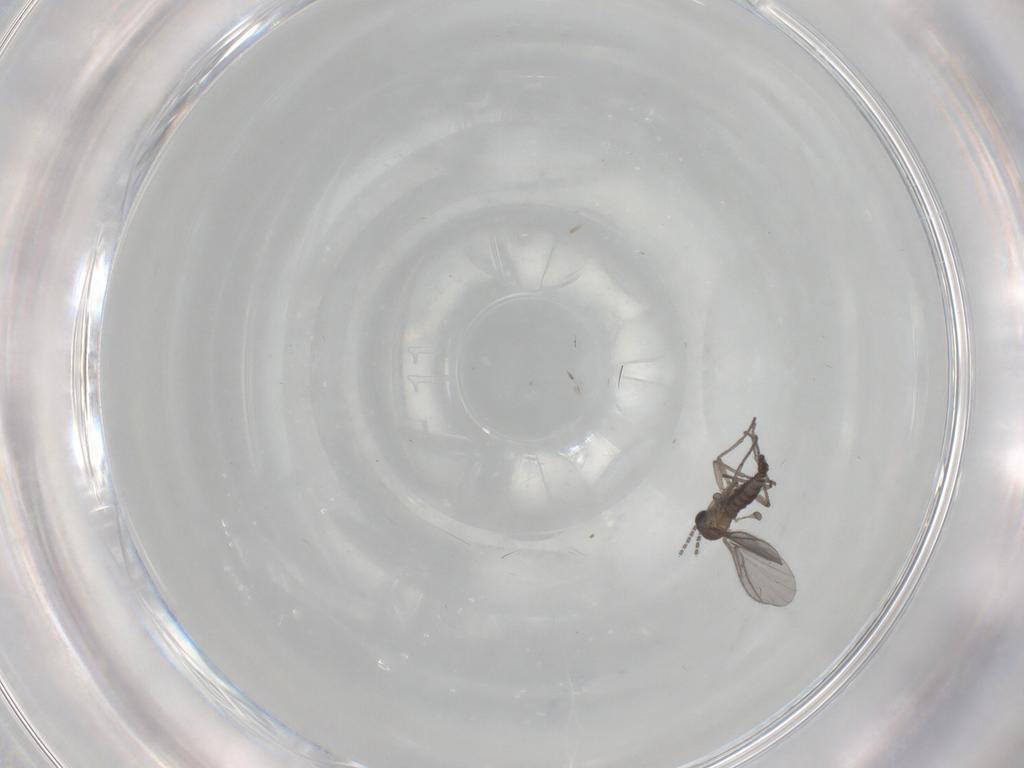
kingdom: Animalia
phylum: Arthropoda
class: Insecta
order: Diptera
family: Sciaridae
